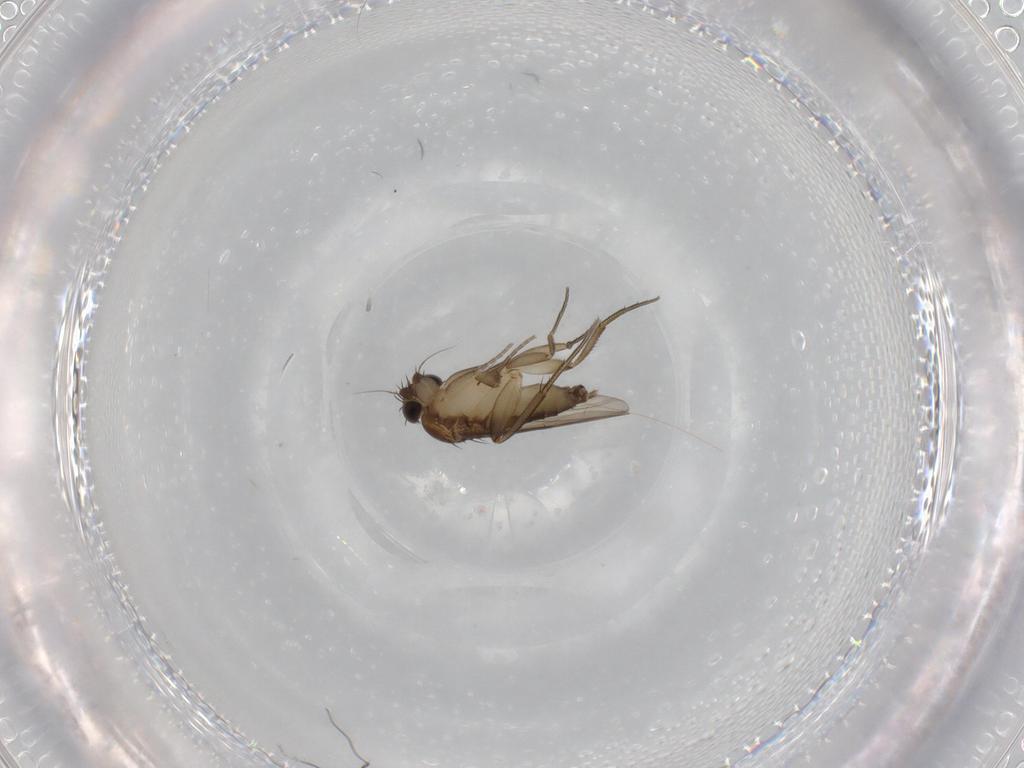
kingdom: Animalia
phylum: Arthropoda
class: Insecta
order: Diptera
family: Phoridae
